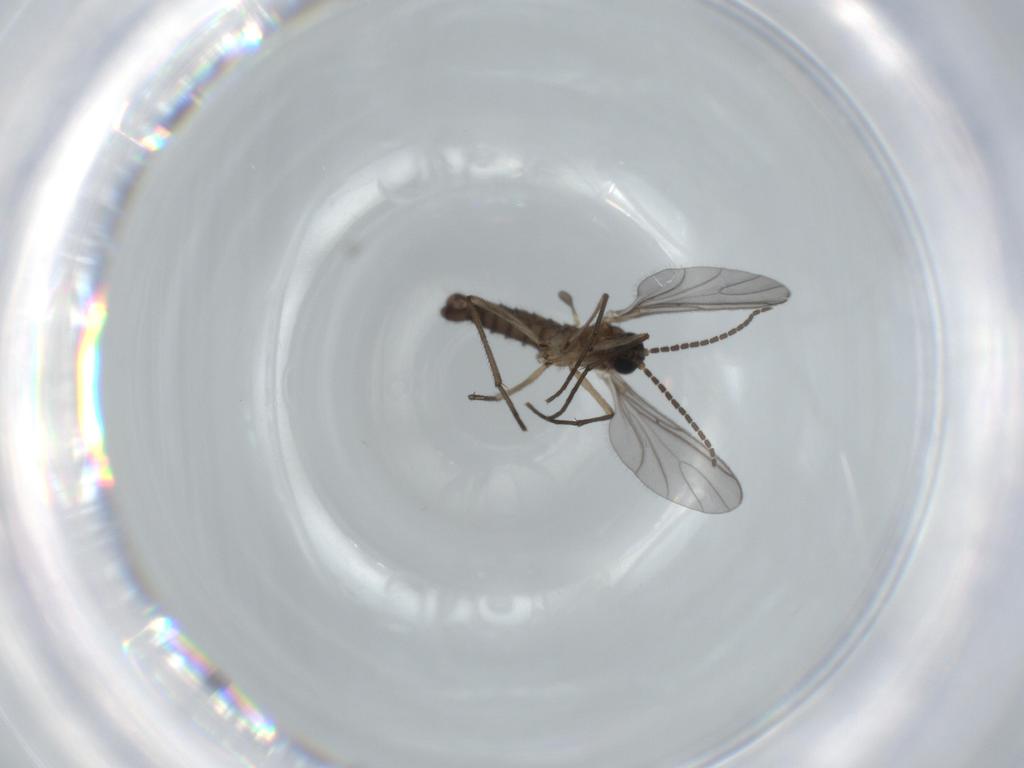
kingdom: Animalia
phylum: Arthropoda
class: Insecta
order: Diptera
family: Sciaridae
